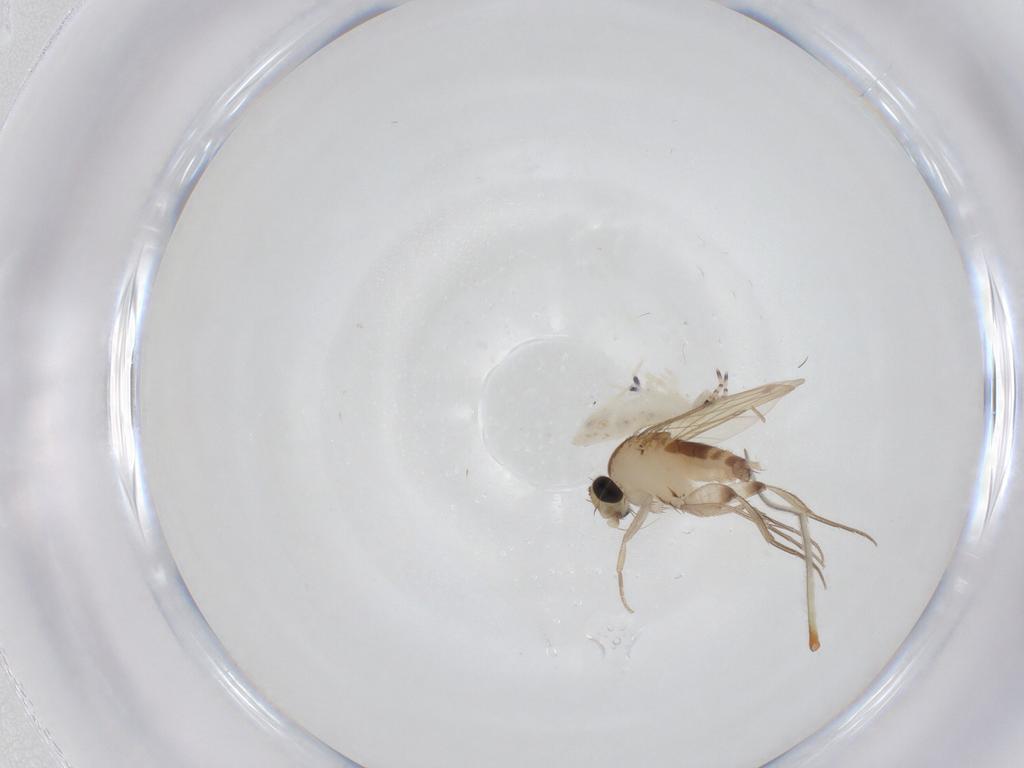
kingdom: Animalia
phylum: Arthropoda
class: Insecta
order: Diptera
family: Phoridae
